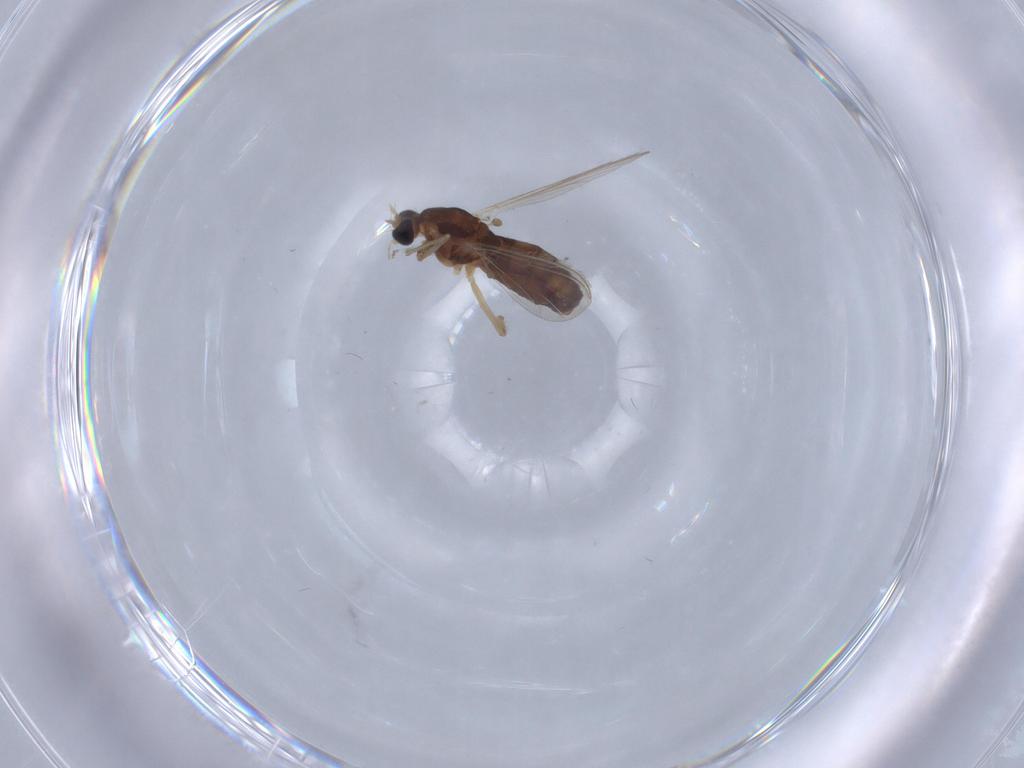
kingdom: Animalia
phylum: Arthropoda
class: Insecta
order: Diptera
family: Chironomidae
